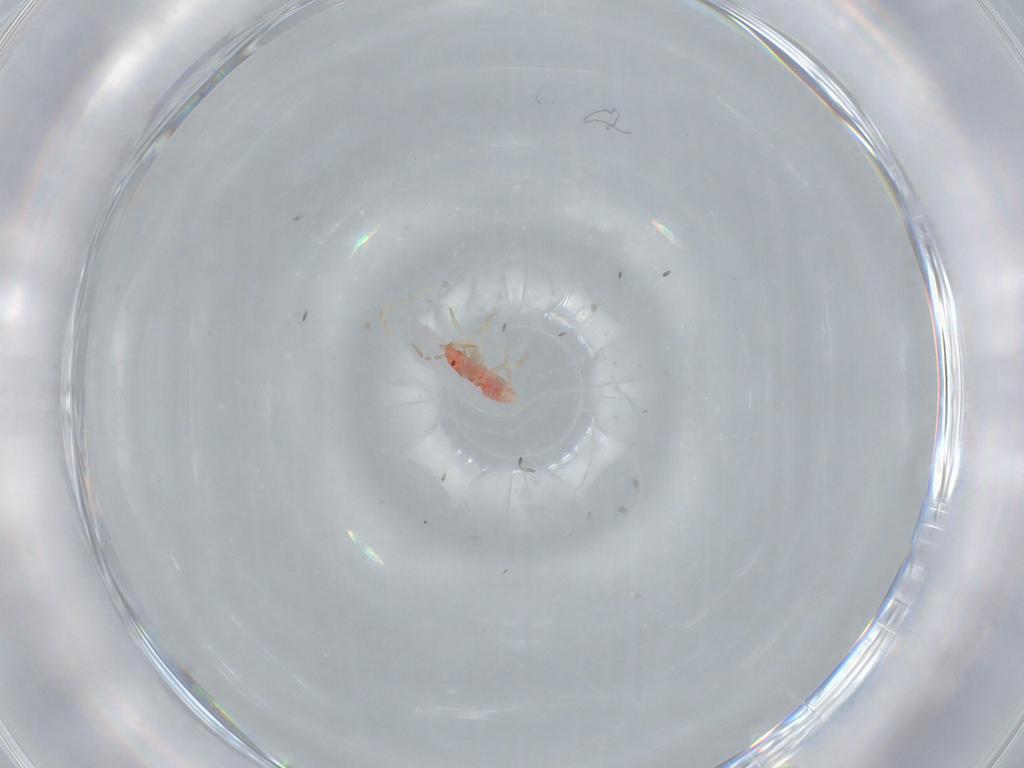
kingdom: Animalia
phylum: Arthropoda
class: Insecta
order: Hemiptera
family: Anthocoridae
